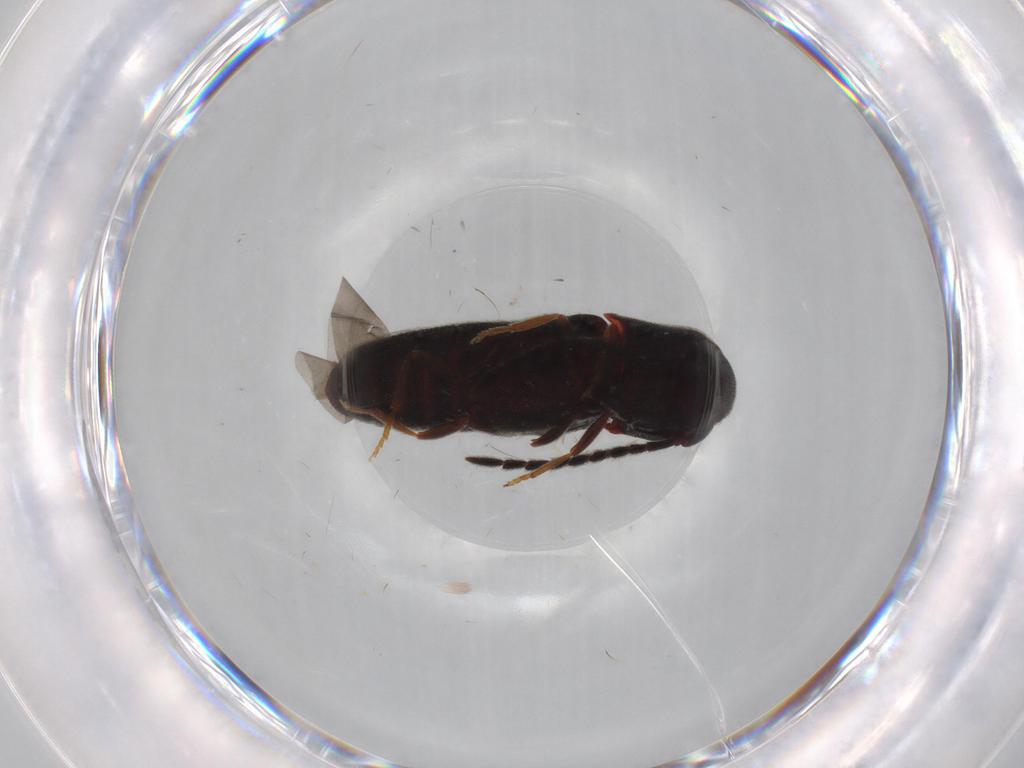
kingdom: Animalia
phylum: Arthropoda
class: Insecta
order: Coleoptera
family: Eucnemidae
